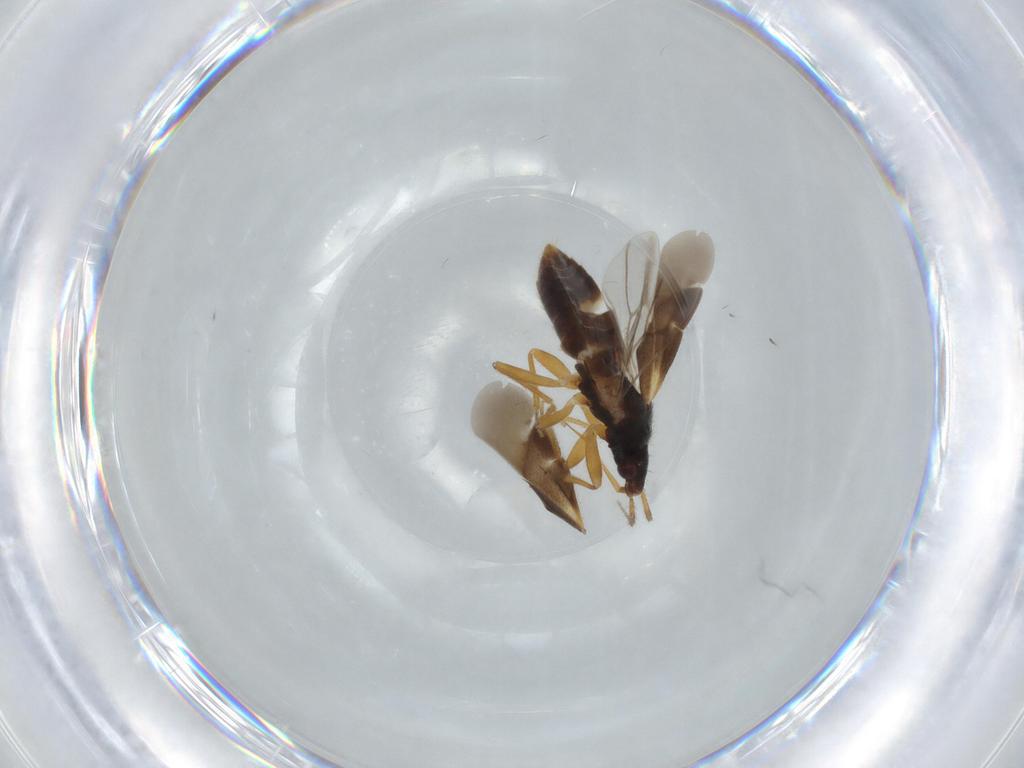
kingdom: Animalia
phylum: Arthropoda
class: Insecta
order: Hemiptera
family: Lasiochilidae
